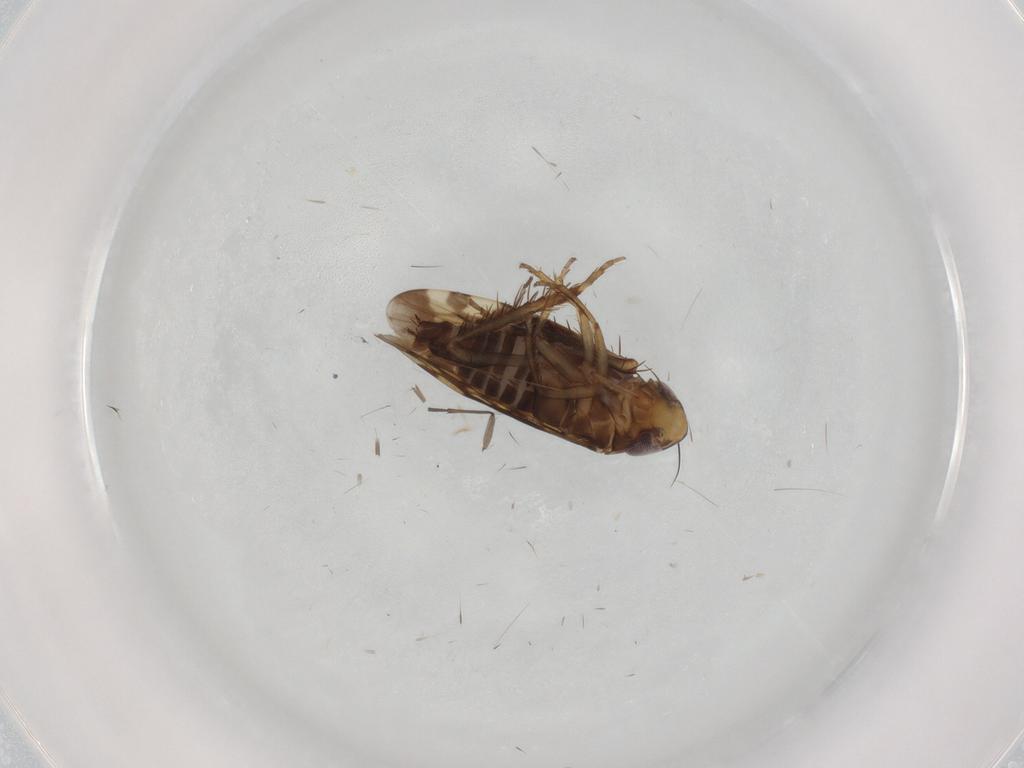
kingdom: Animalia
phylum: Arthropoda
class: Insecta
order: Hemiptera
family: Cicadellidae
